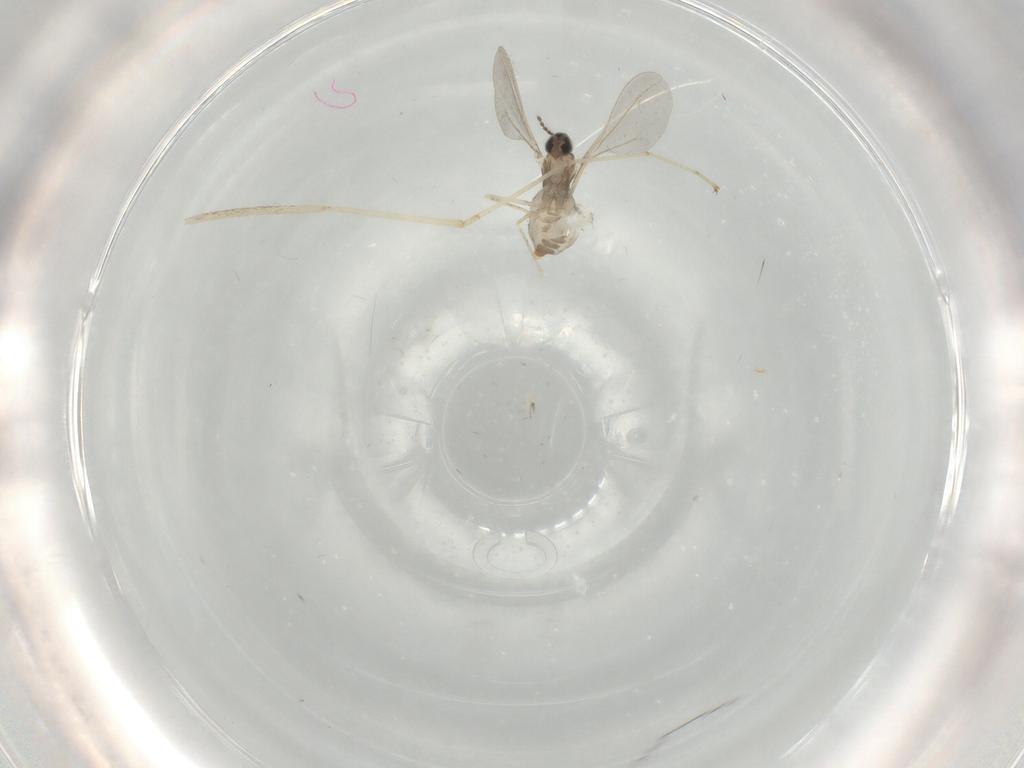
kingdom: Animalia
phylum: Arthropoda
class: Insecta
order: Diptera
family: Cecidomyiidae
